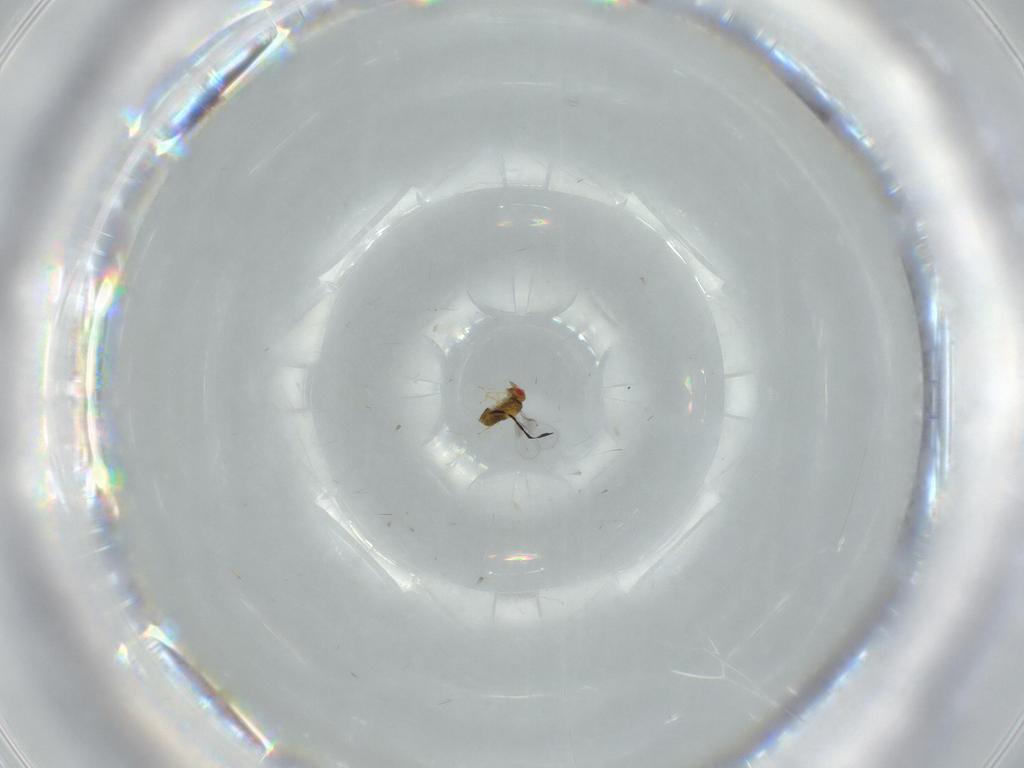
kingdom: Animalia
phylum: Arthropoda
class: Insecta
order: Hymenoptera
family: Trichogrammatidae
